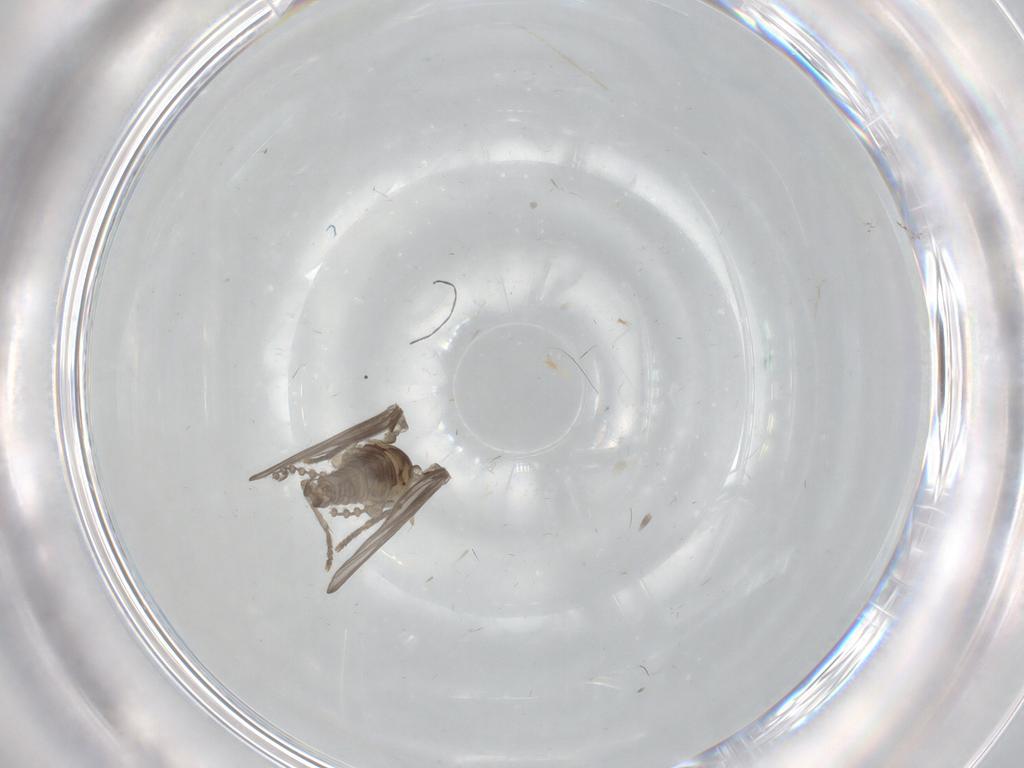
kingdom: Animalia
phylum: Arthropoda
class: Insecta
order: Diptera
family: Psychodidae
